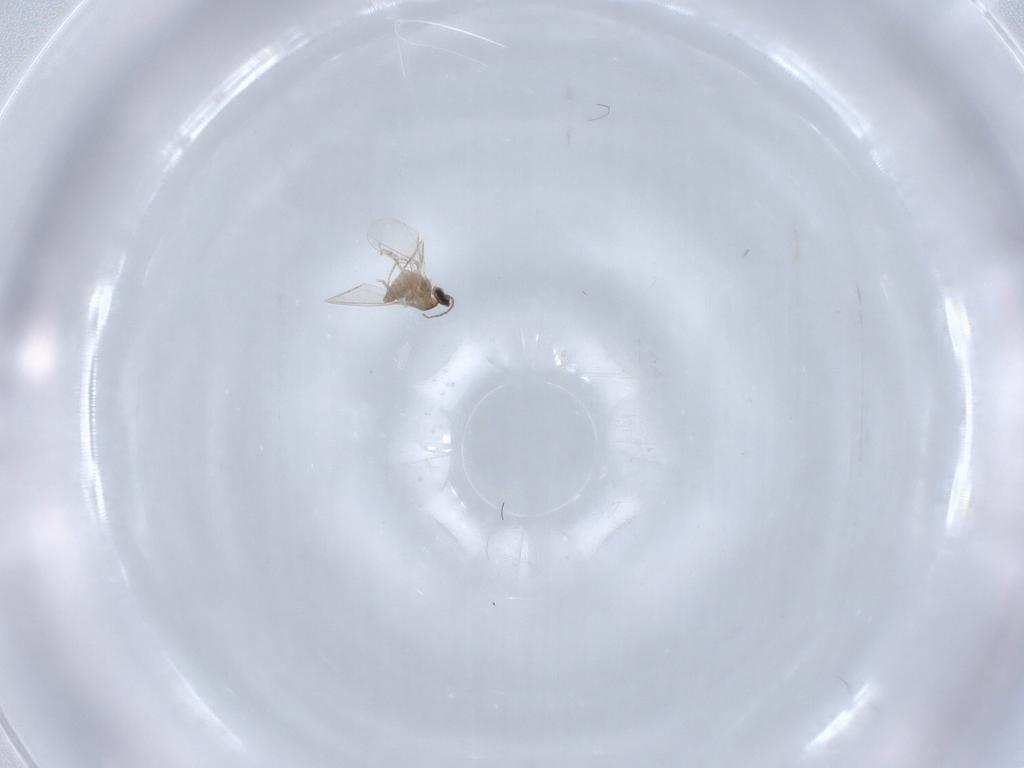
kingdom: Animalia
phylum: Arthropoda
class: Insecta
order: Diptera
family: Cecidomyiidae
